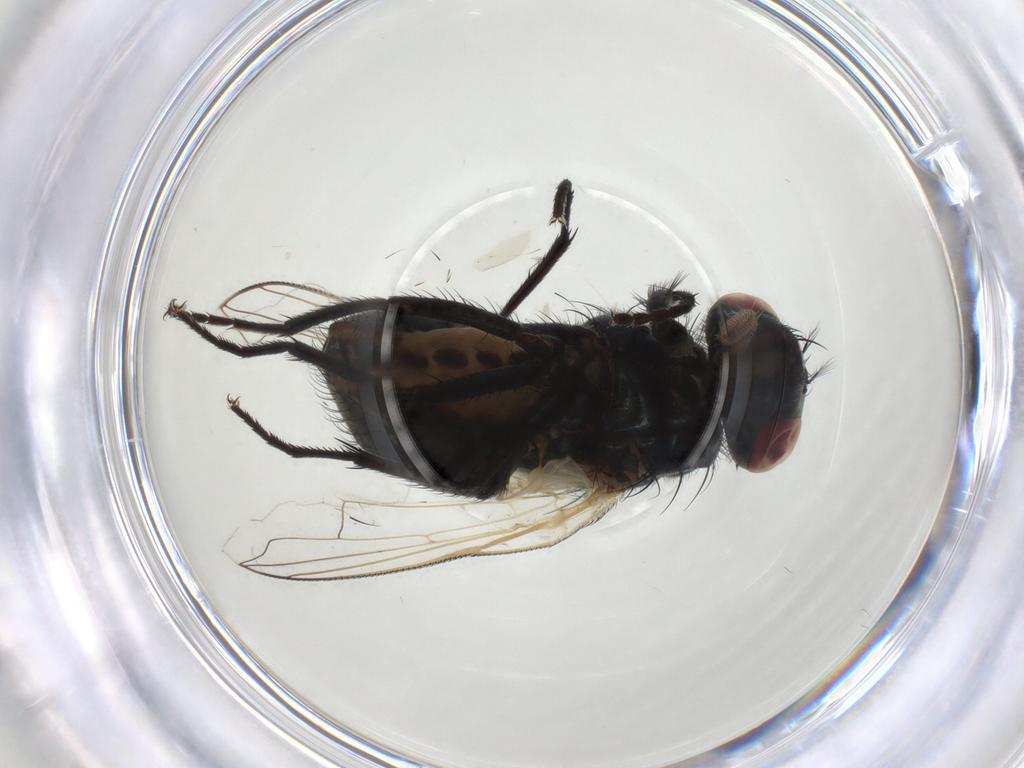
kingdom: Animalia
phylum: Arthropoda
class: Insecta
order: Diptera
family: Muscidae
